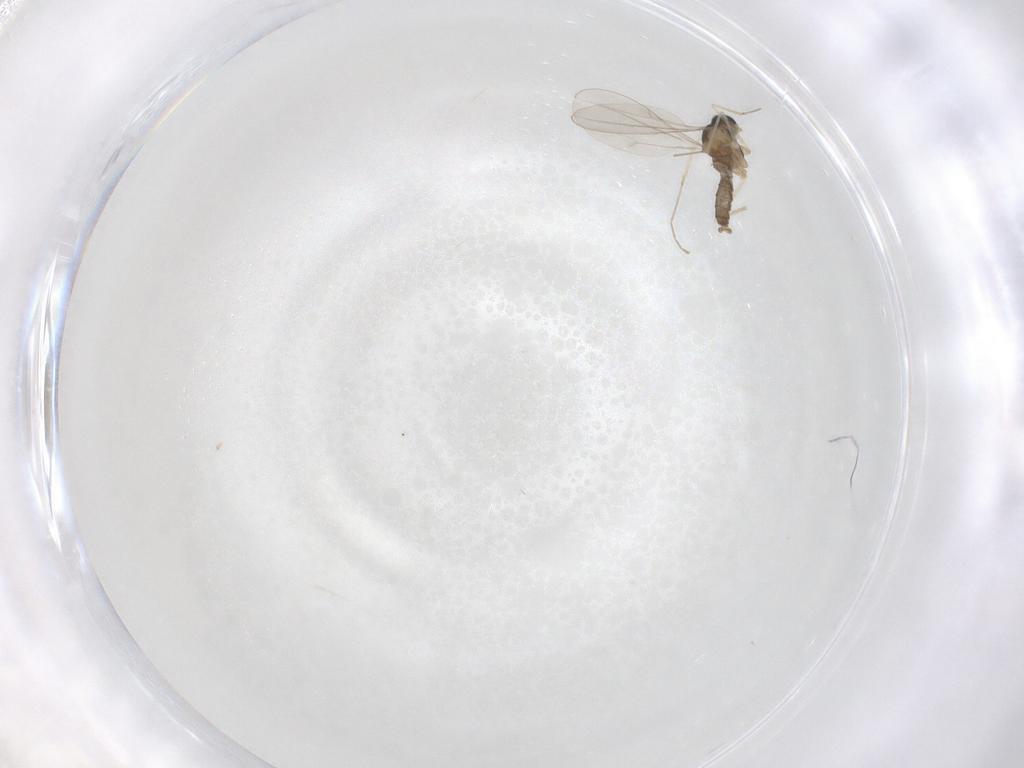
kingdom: Animalia
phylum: Arthropoda
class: Insecta
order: Diptera
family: Cecidomyiidae
